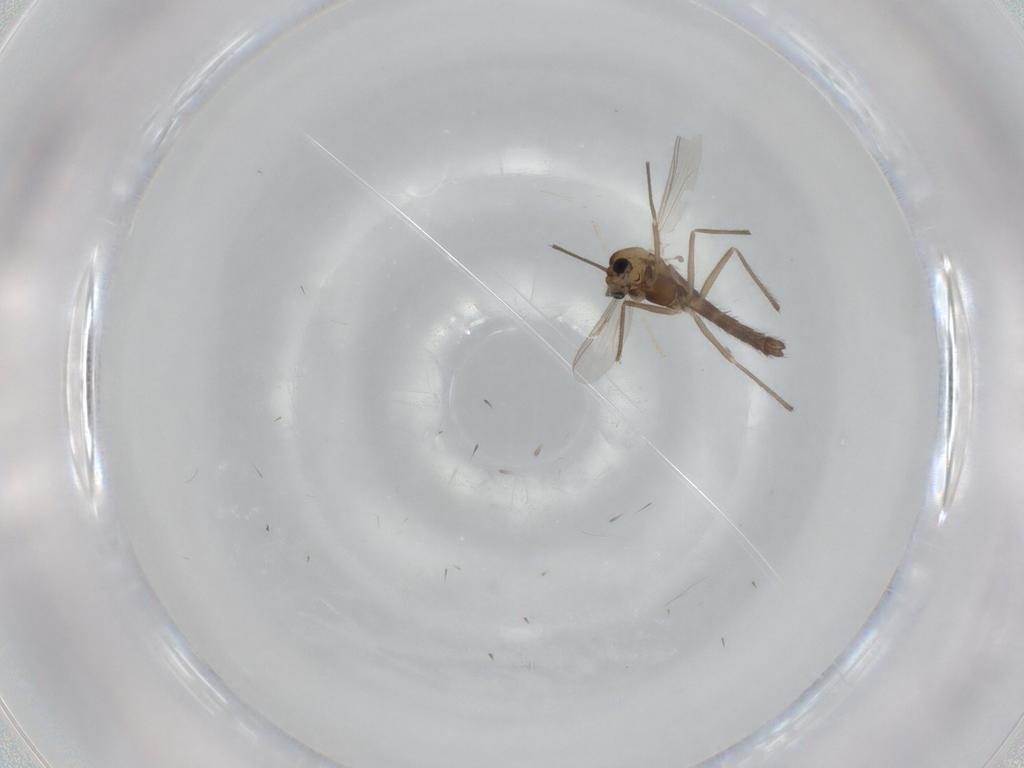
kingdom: Animalia
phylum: Arthropoda
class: Insecta
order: Diptera
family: Chironomidae
